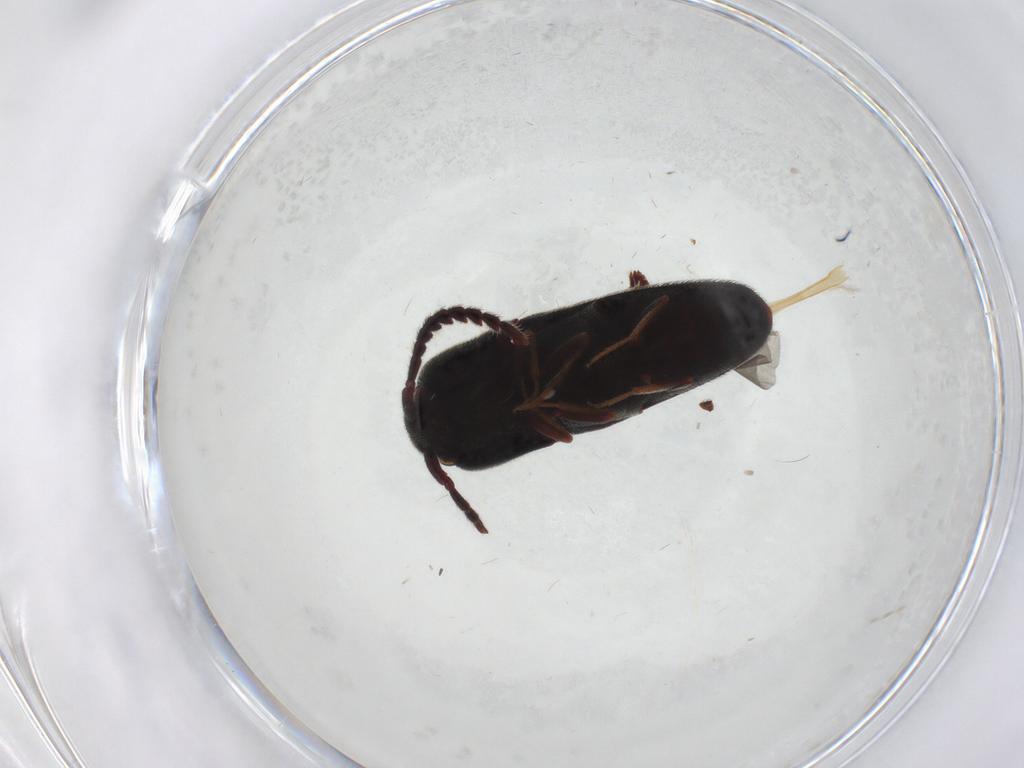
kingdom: Animalia
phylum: Arthropoda
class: Insecta
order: Coleoptera
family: Eucnemidae
